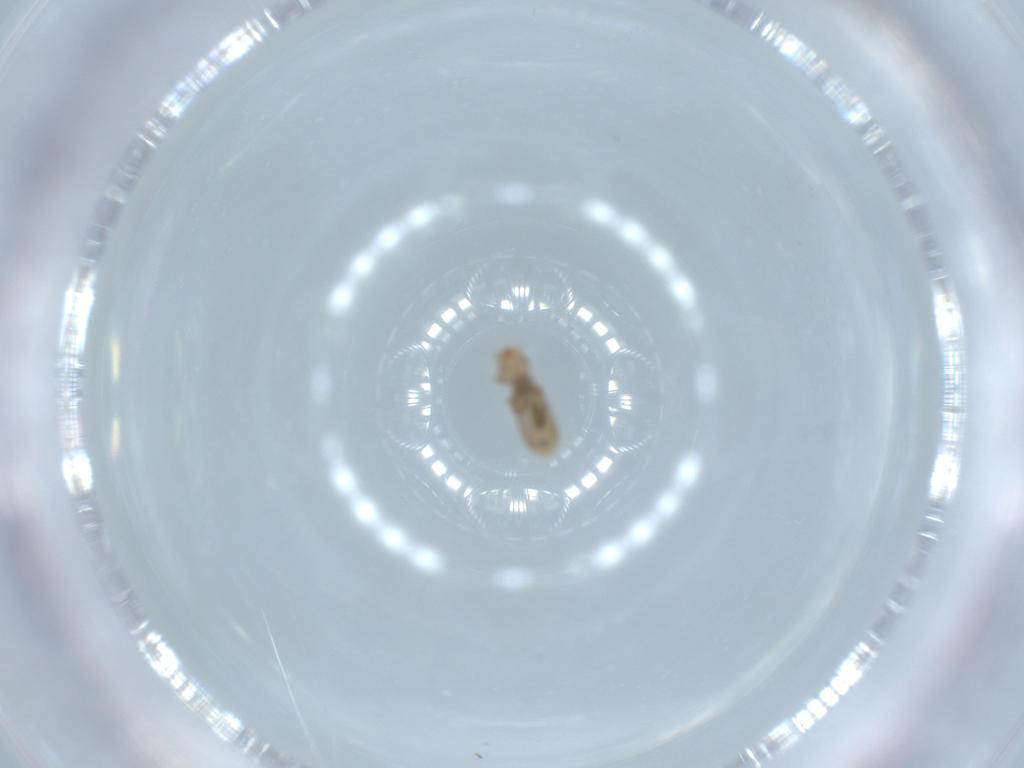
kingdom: Animalia
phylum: Arthropoda
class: Insecta
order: Psocodea
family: Liposcelididae
